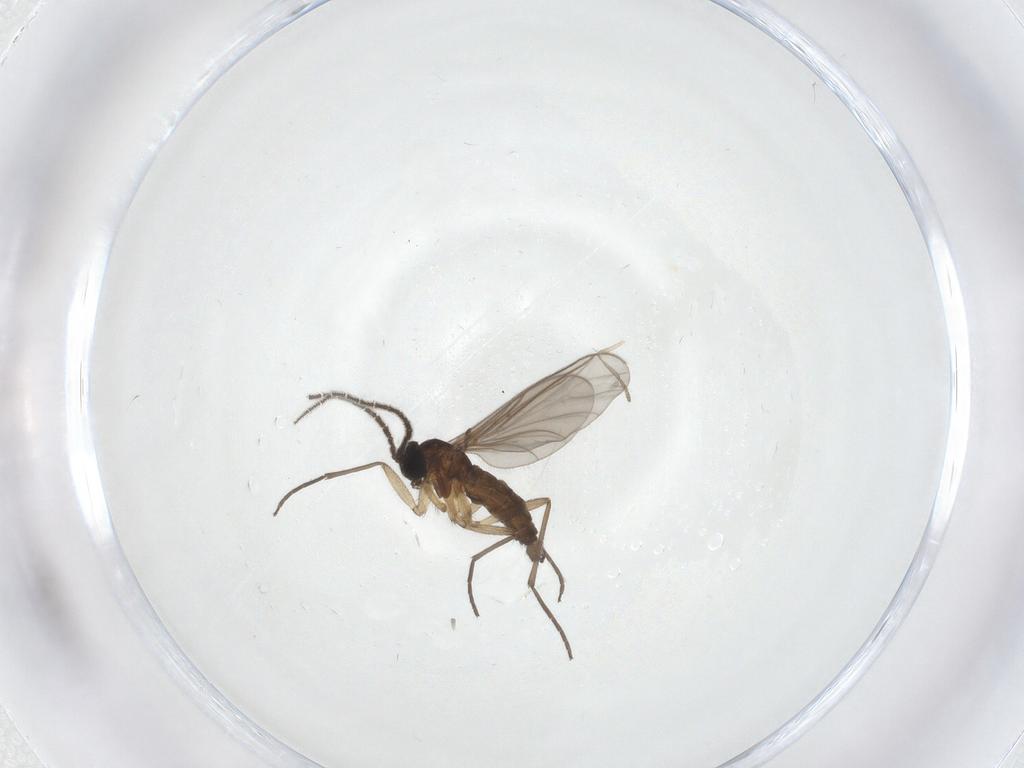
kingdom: Animalia
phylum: Arthropoda
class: Insecta
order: Diptera
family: Sciaridae
